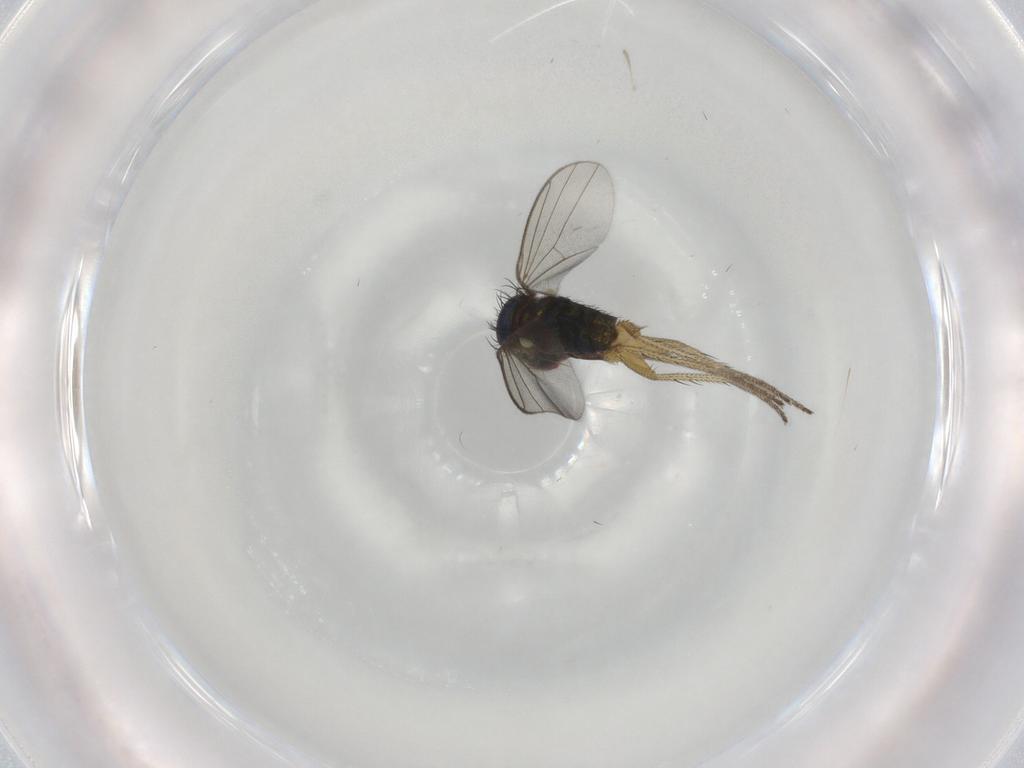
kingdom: Animalia
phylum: Arthropoda
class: Insecta
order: Diptera
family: Dolichopodidae
